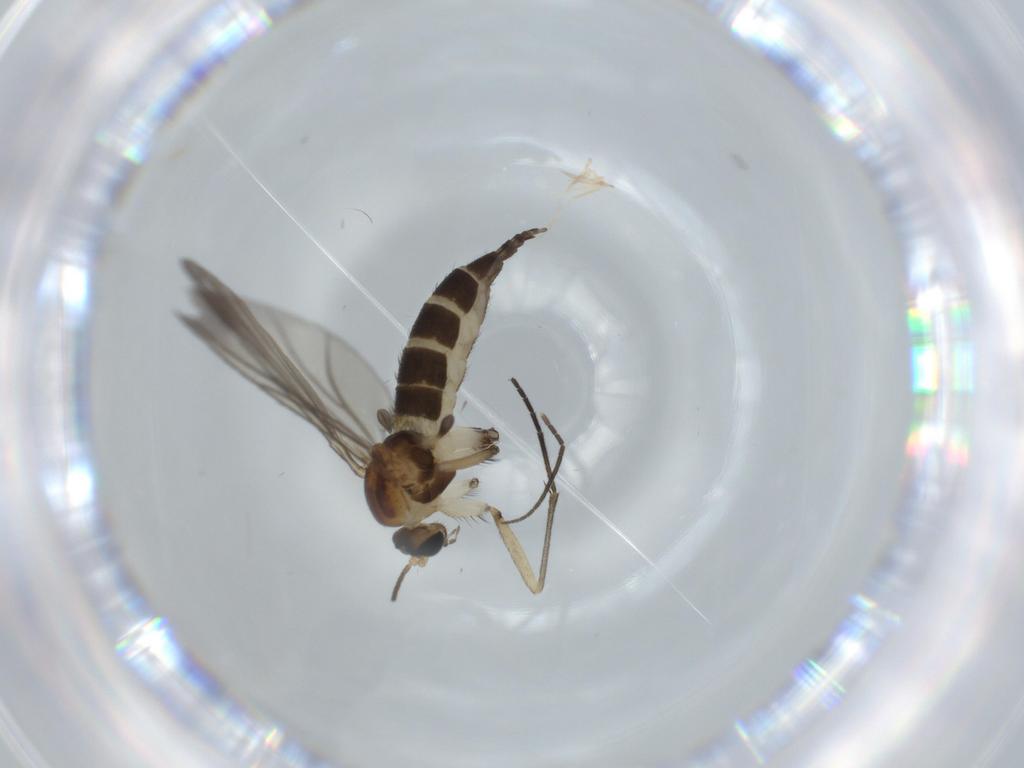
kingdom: Animalia
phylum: Arthropoda
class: Insecta
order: Diptera
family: Sciaridae
